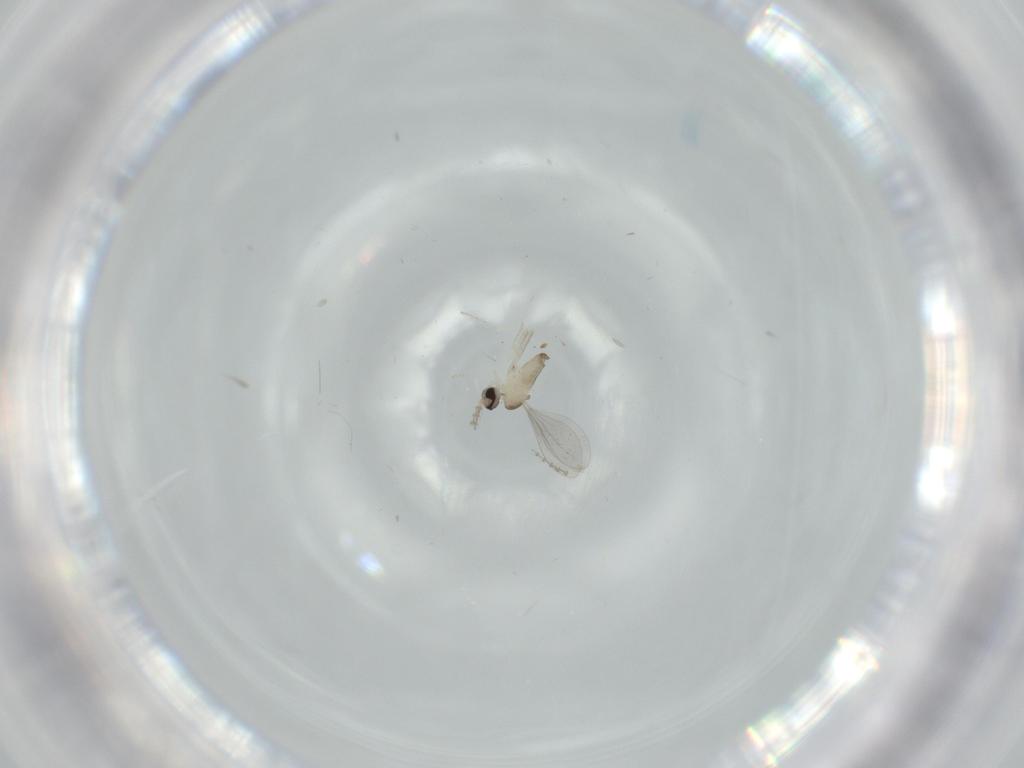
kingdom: Animalia
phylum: Arthropoda
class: Insecta
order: Diptera
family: Cecidomyiidae
